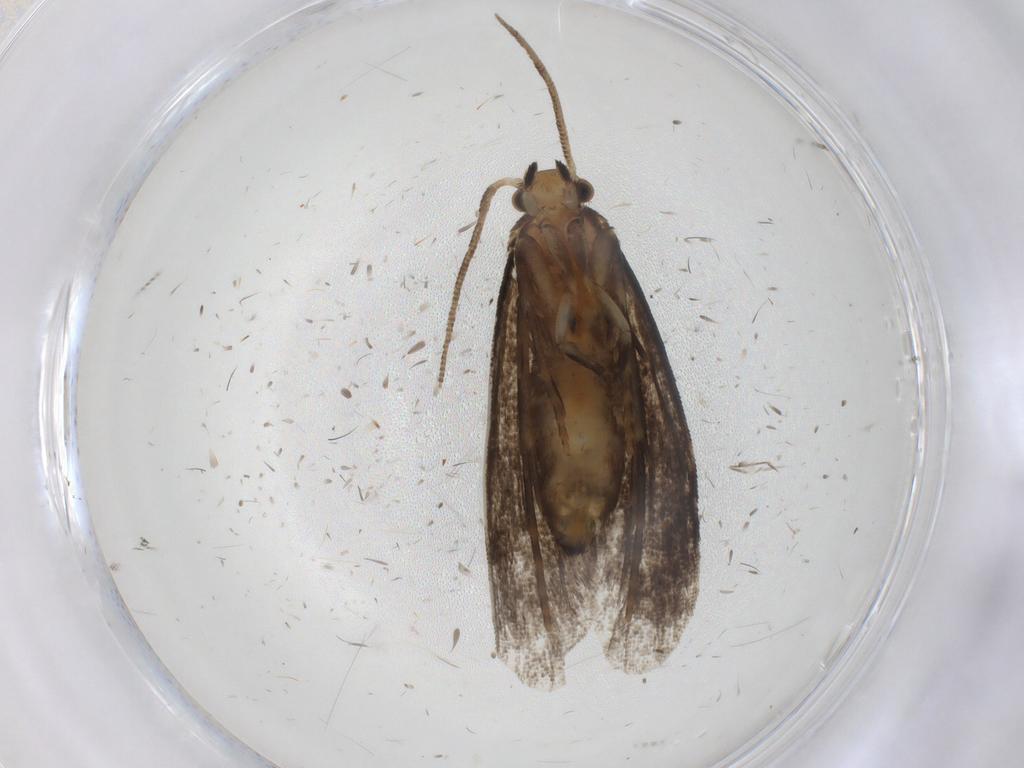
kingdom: Animalia
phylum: Arthropoda
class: Insecta
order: Lepidoptera
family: Dryadaulidae
